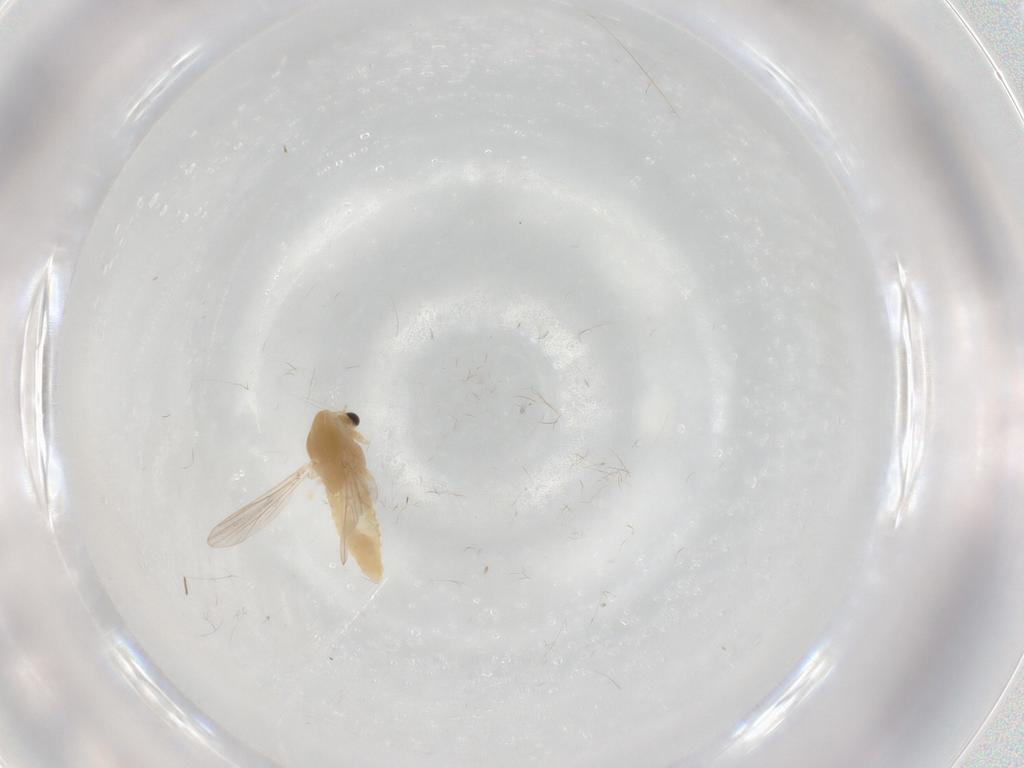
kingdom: Animalia
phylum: Arthropoda
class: Insecta
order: Diptera
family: Chironomidae
